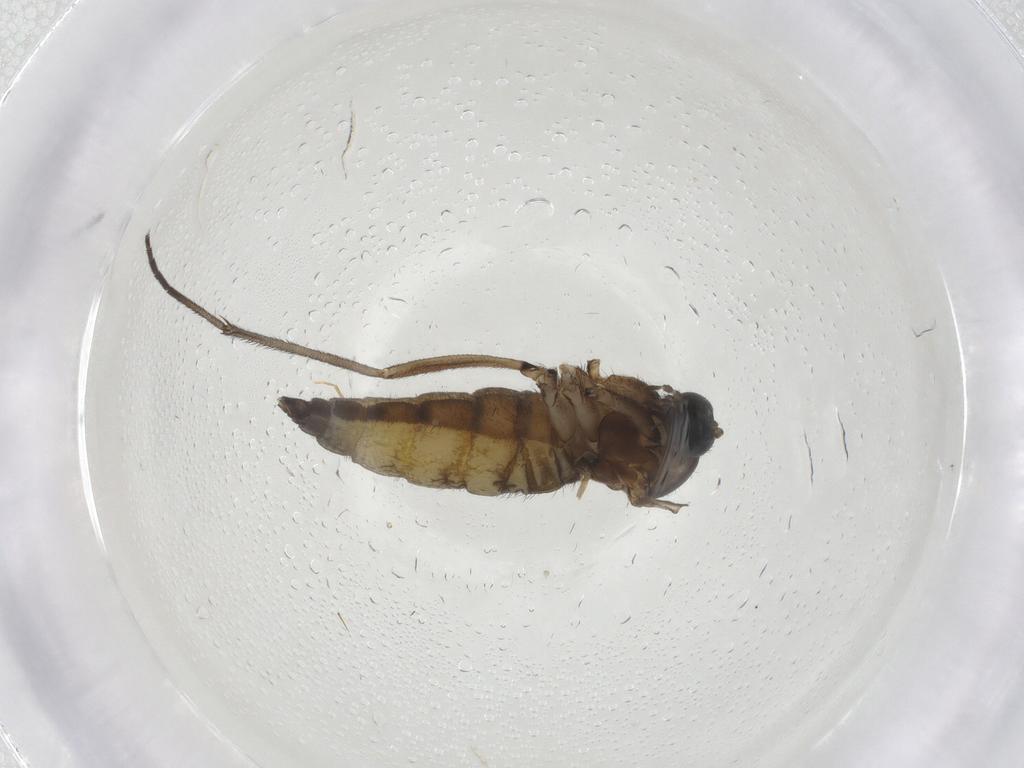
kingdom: Animalia
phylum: Arthropoda
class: Insecta
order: Diptera
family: Sciaridae
